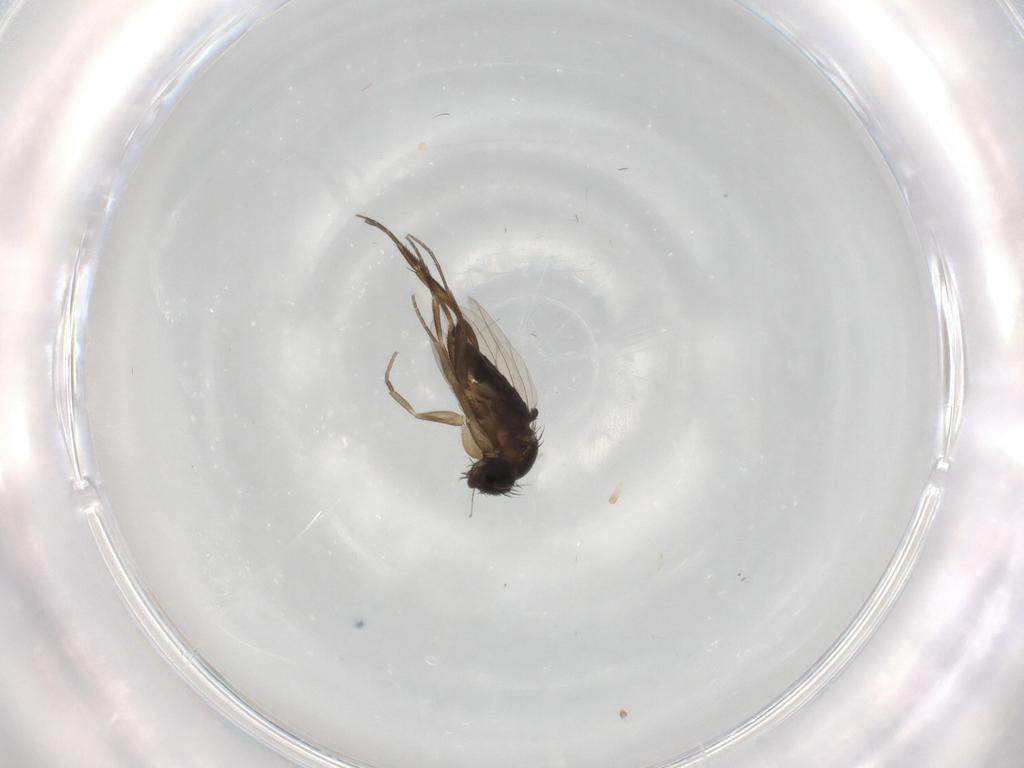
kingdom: Animalia
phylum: Arthropoda
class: Insecta
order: Diptera
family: Phoridae
